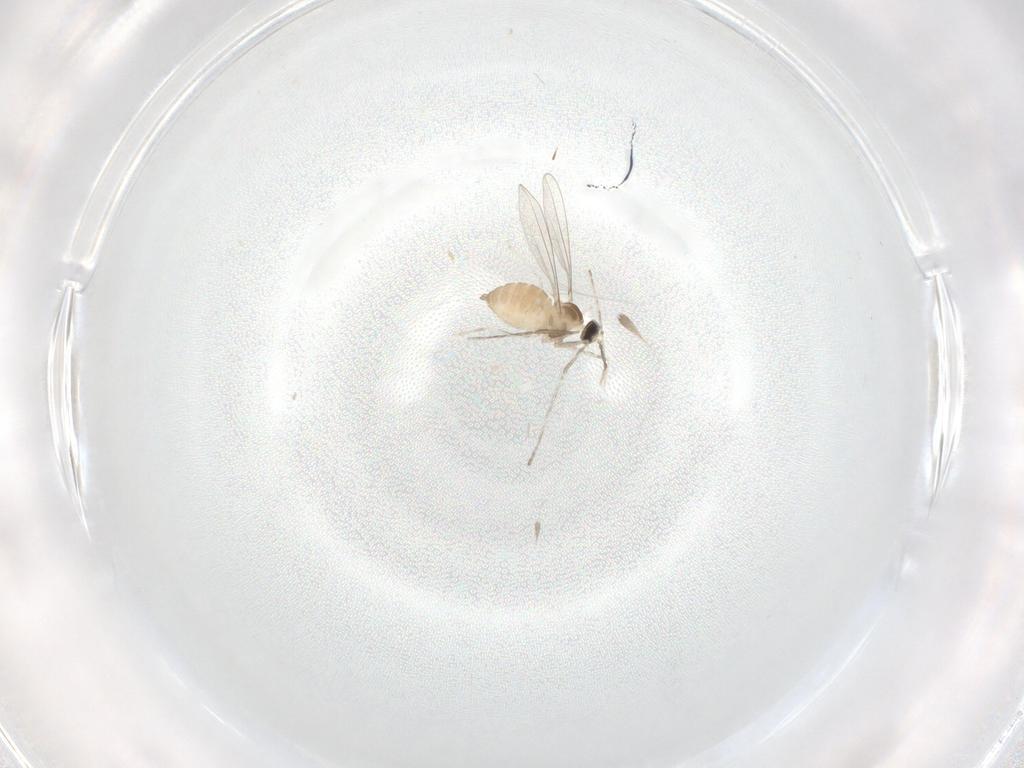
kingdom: Animalia
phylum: Arthropoda
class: Insecta
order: Diptera
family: Cecidomyiidae
